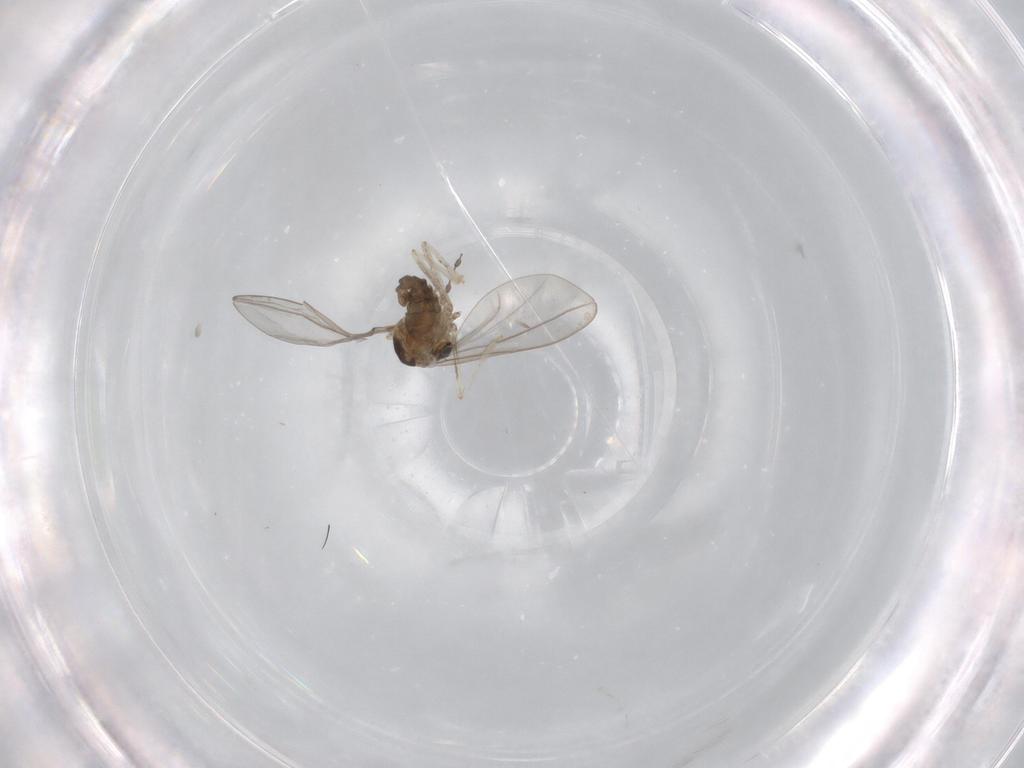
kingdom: Animalia
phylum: Arthropoda
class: Insecta
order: Diptera
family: Cecidomyiidae
